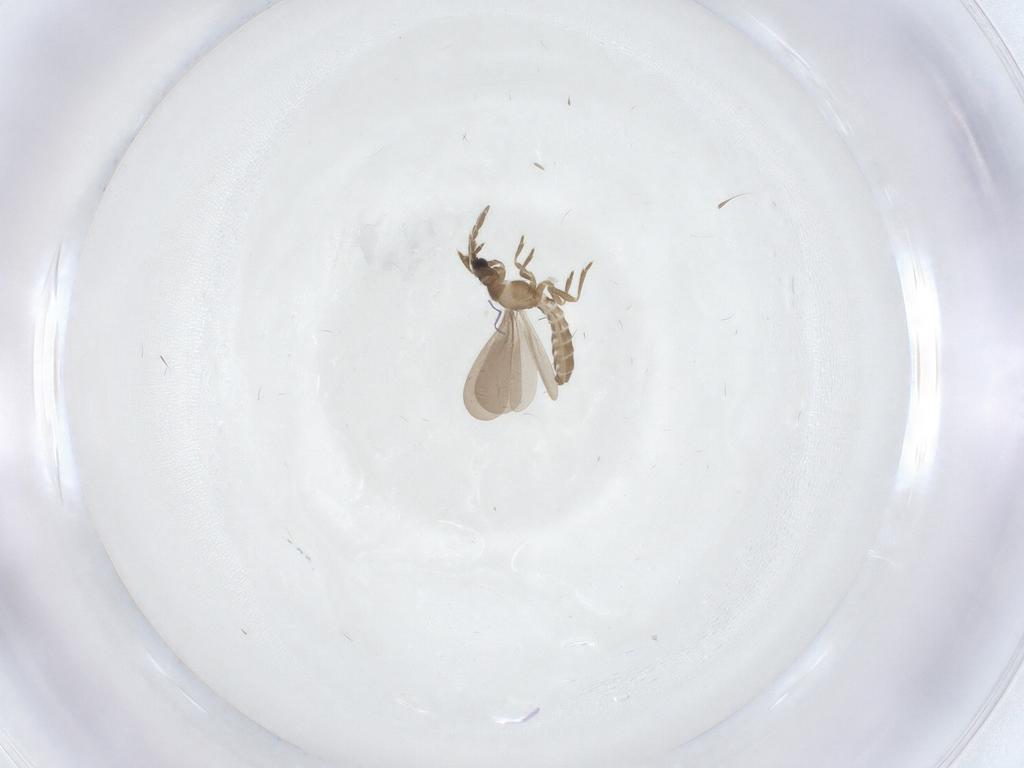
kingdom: Animalia
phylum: Arthropoda
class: Insecta
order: Hemiptera
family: Enicocephalidae
